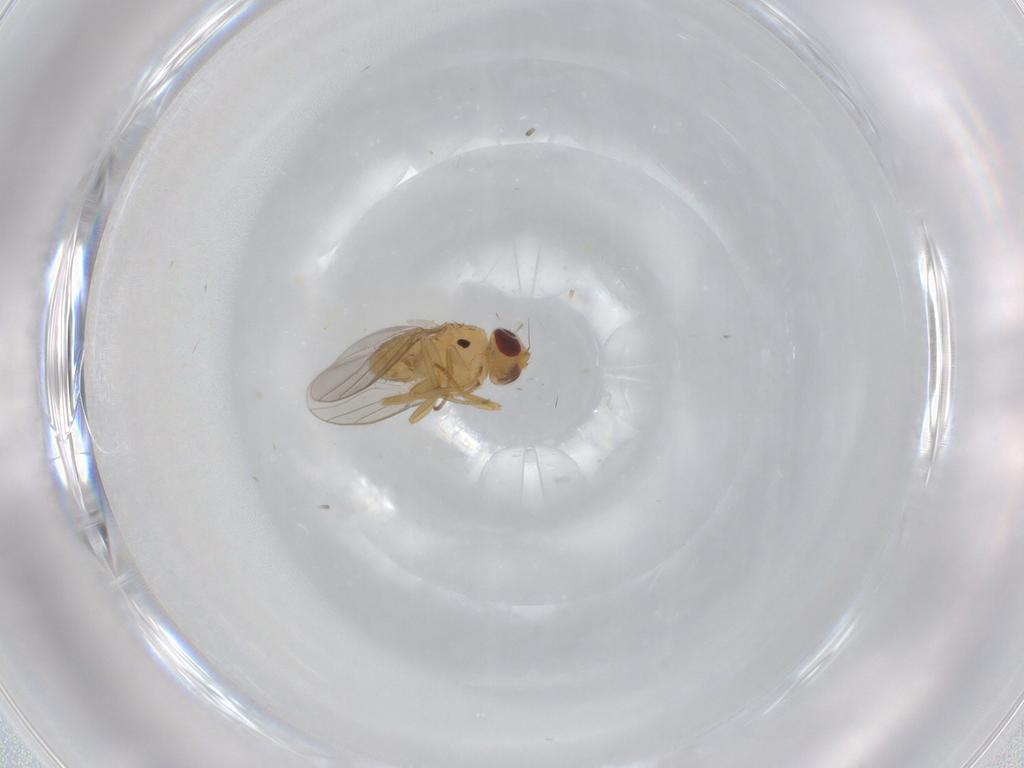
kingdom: Animalia
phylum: Arthropoda
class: Insecta
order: Diptera
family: Chloropidae
